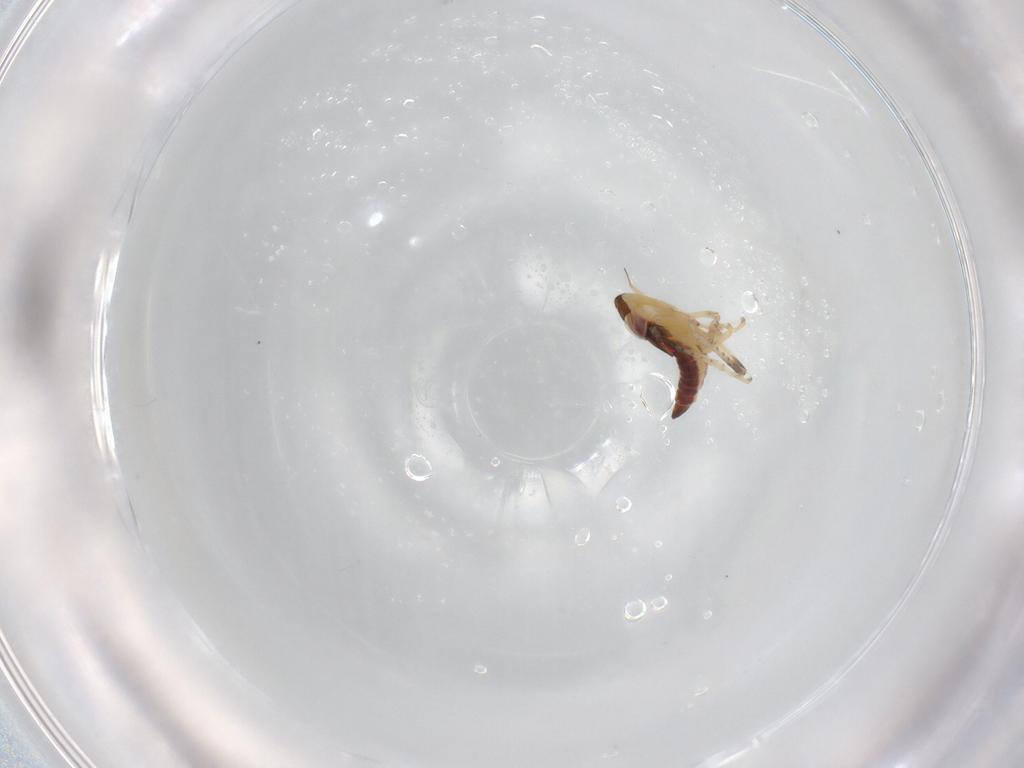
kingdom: Animalia
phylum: Arthropoda
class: Insecta
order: Hemiptera
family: Cicadellidae
